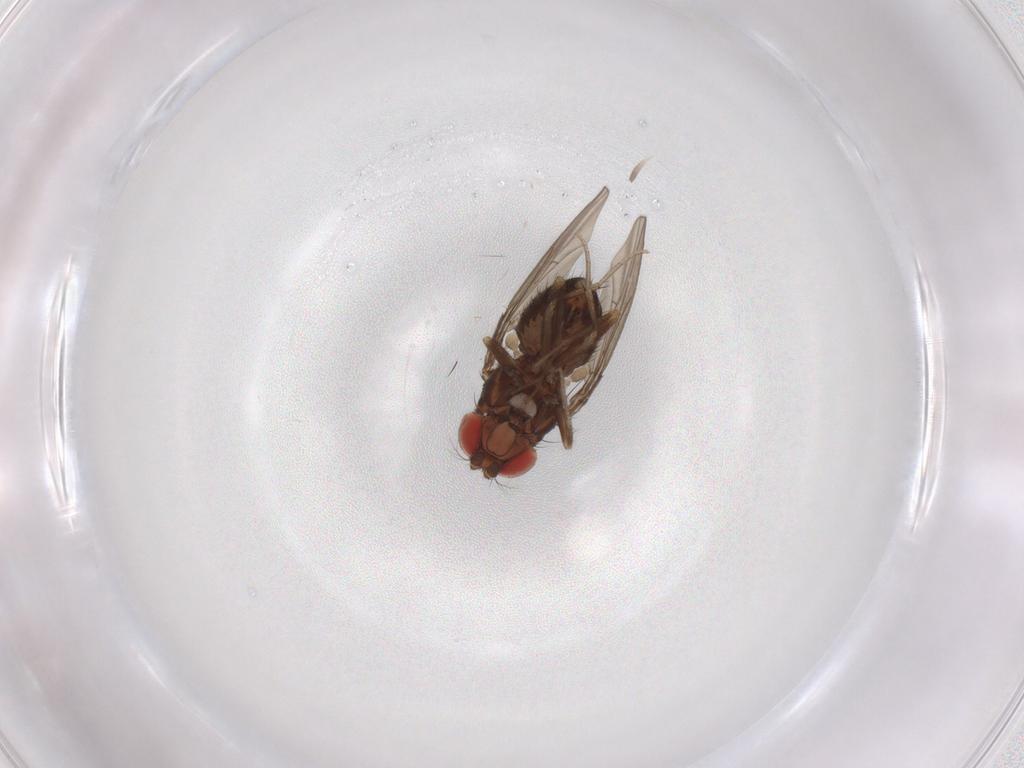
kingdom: Animalia
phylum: Arthropoda
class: Insecta
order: Diptera
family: Drosophilidae
